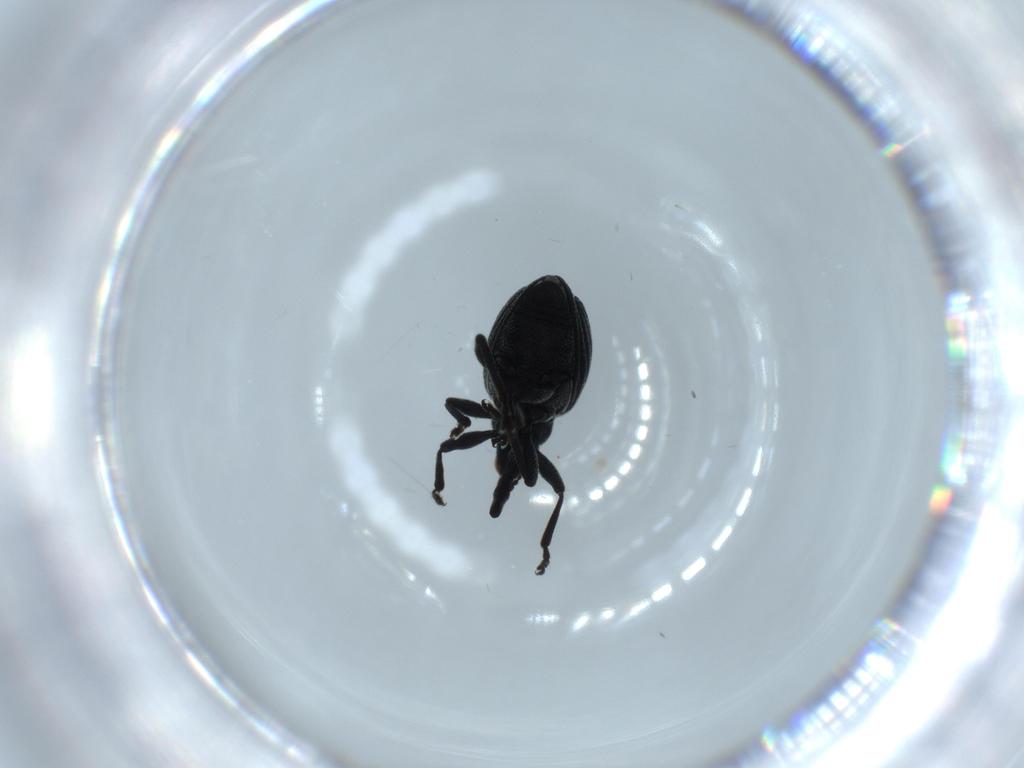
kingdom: Animalia
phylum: Arthropoda
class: Insecta
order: Coleoptera
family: Brentidae
